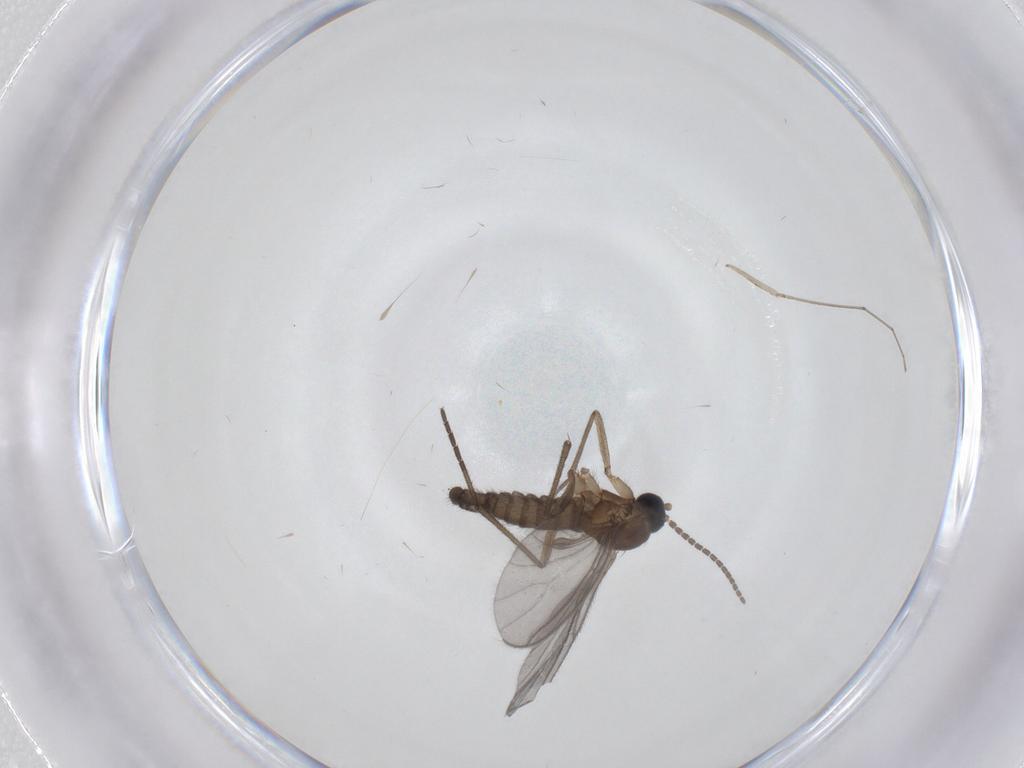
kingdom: Animalia
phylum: Arthropoda
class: Insecta
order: Diptera
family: Sciaridae
